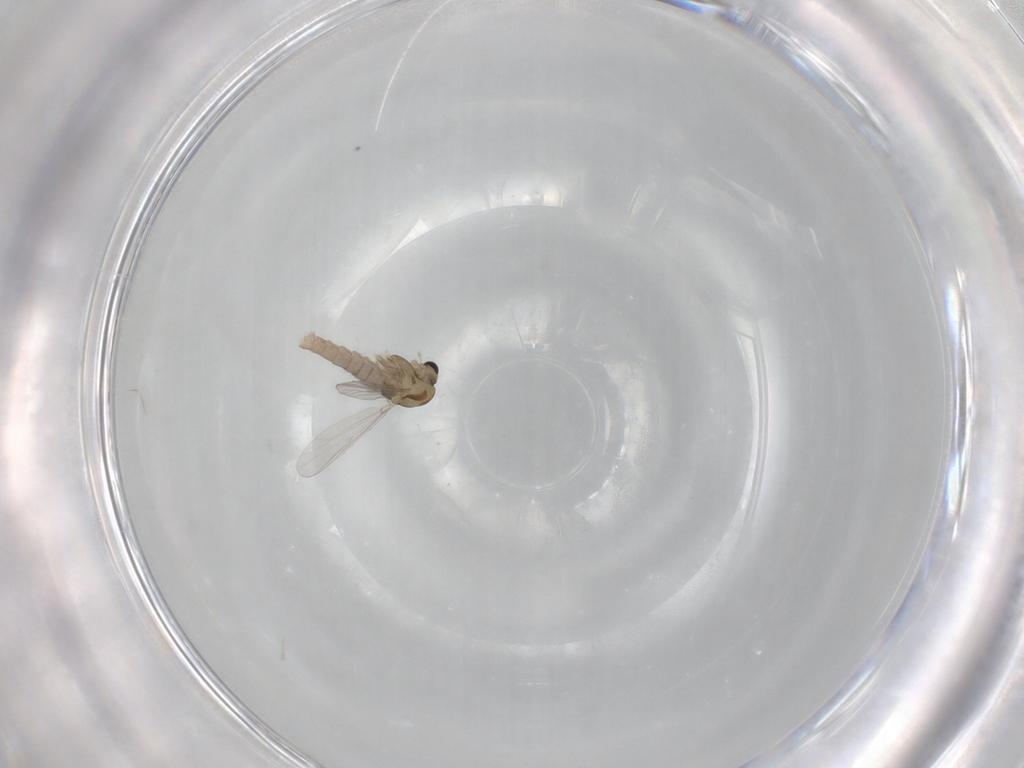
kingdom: Animalia
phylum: Arthropoda
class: Insecta
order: Diptera
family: Chironomidae
